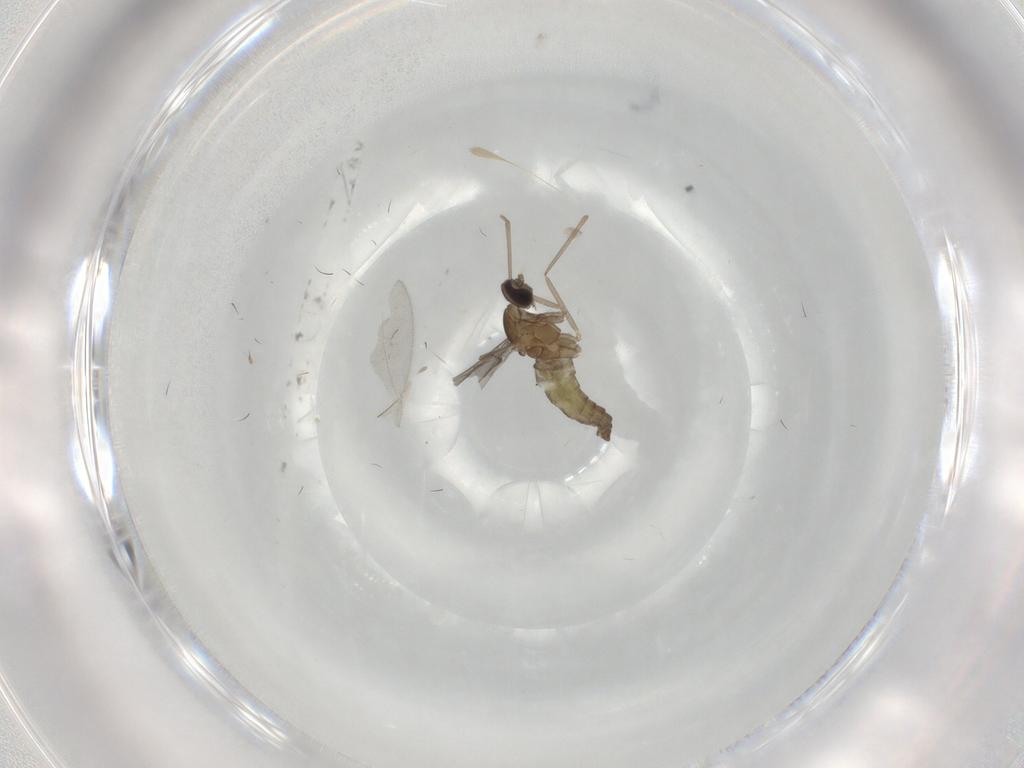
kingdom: Animalia
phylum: Arthropoda
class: Insecta
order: Diptera
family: Cecidomyiidae
